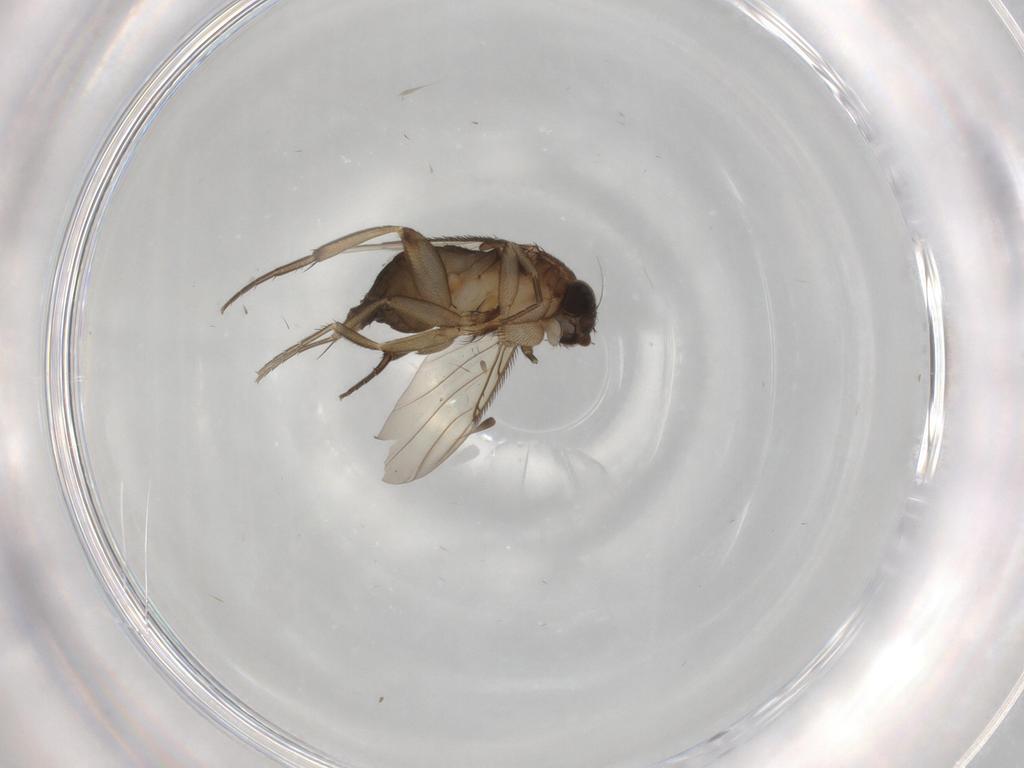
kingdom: Animalia
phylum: Arthropoda
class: Insecta
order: Diptera
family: Phoridae
